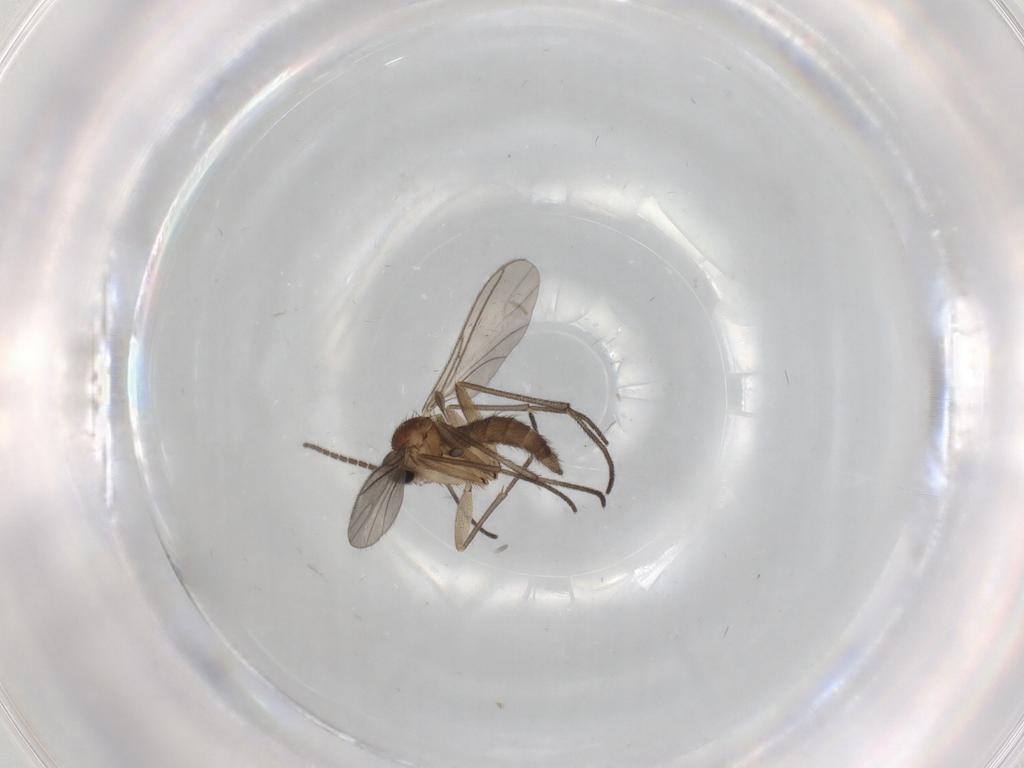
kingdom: Animalia
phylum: Arthropoda
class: Insecta
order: Diptera
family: Sciaridae
